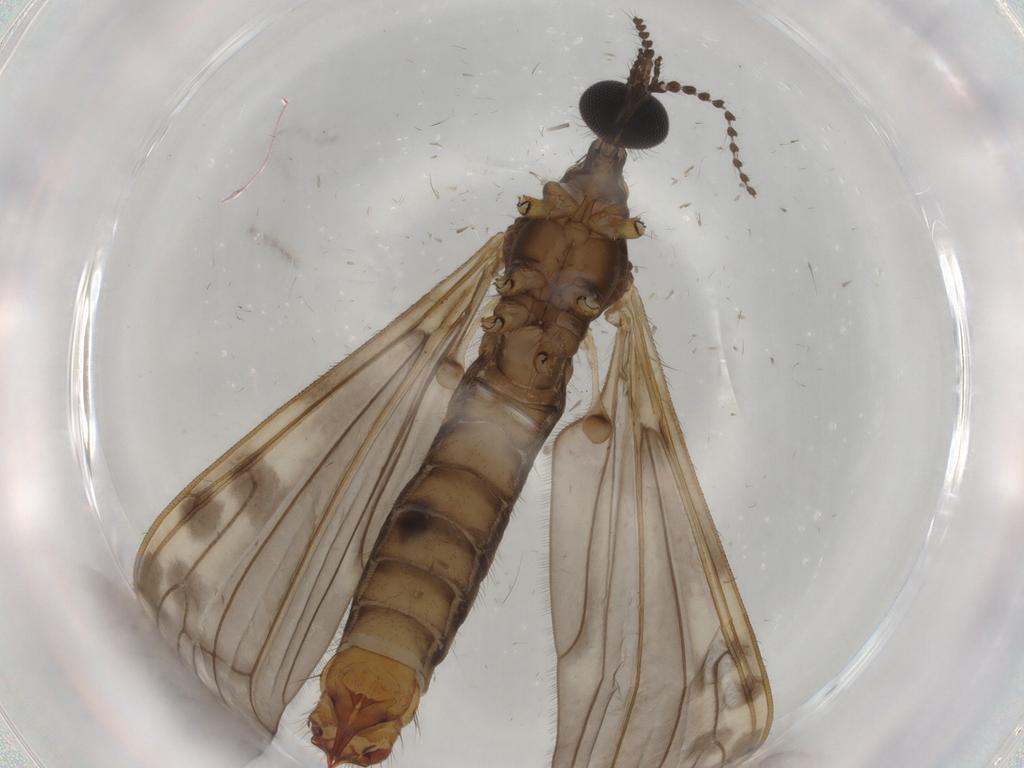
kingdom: Animalia
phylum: Arthropoda
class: Insecta
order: Diptera
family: Chironomidae
